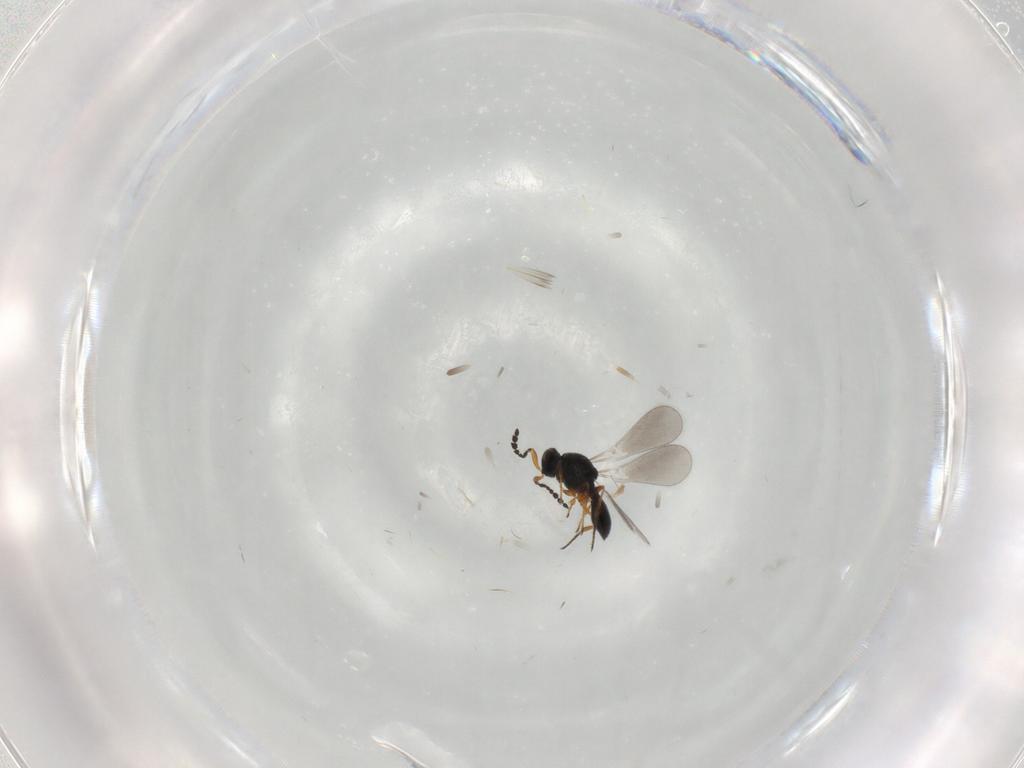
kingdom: Animalia
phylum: Arthropoda
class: Insecta
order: Hymenoptera
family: Platygastridae
